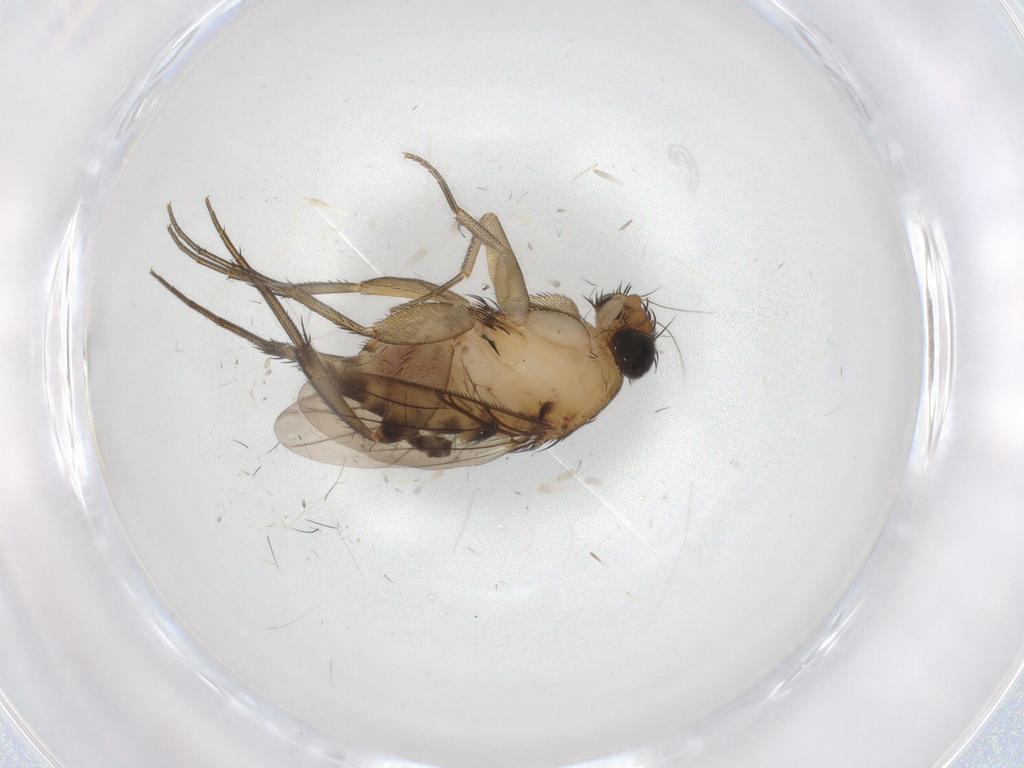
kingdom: Animalia
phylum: Arthropoda
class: Insecta
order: Diptera
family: Phoridae
